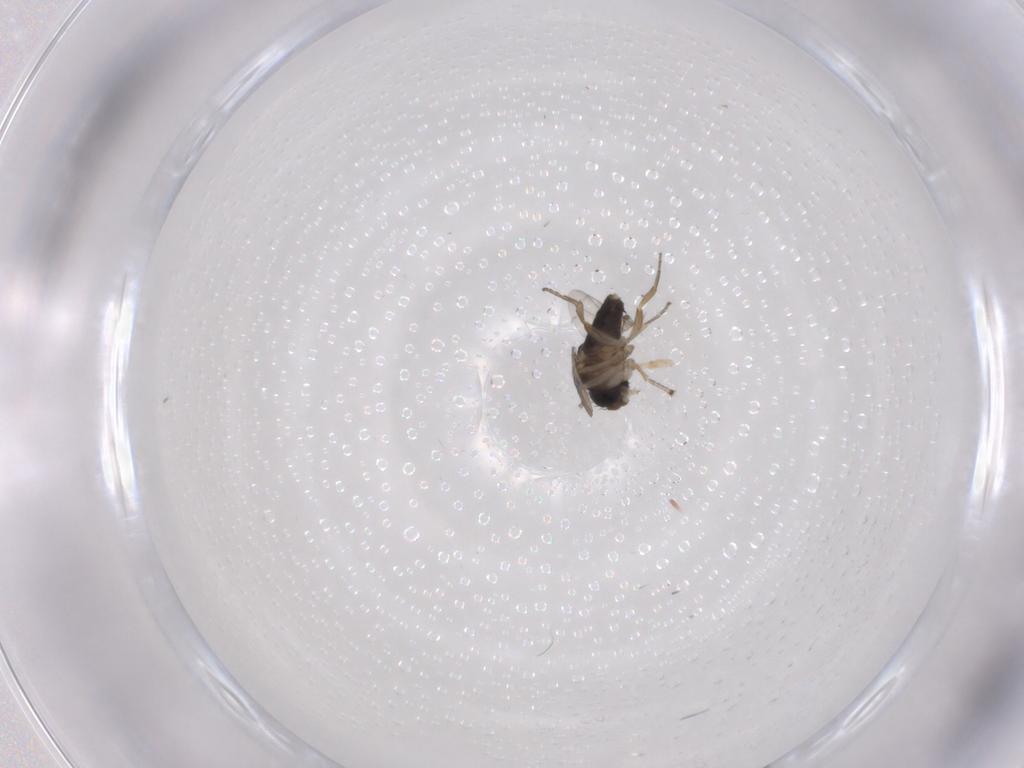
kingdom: Animalia
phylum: Arthropoda
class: Insecta
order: Diptera
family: Phoridae
